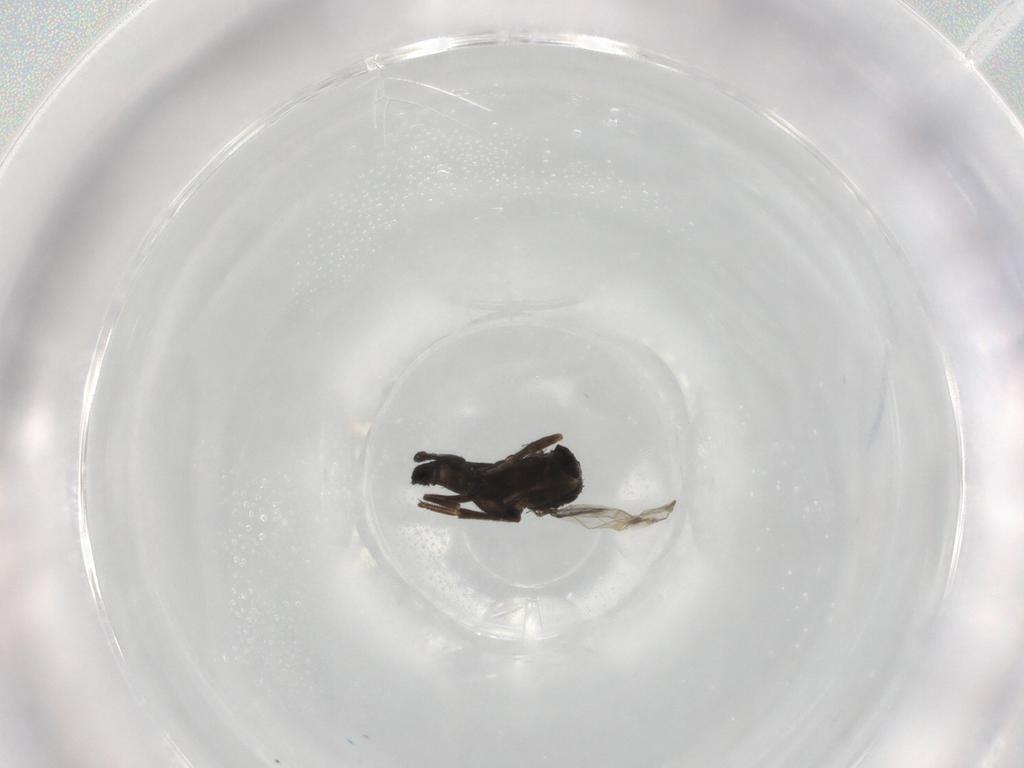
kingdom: Animalia
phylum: Arthropoda
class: Insecta
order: Diptera
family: Phoridae
